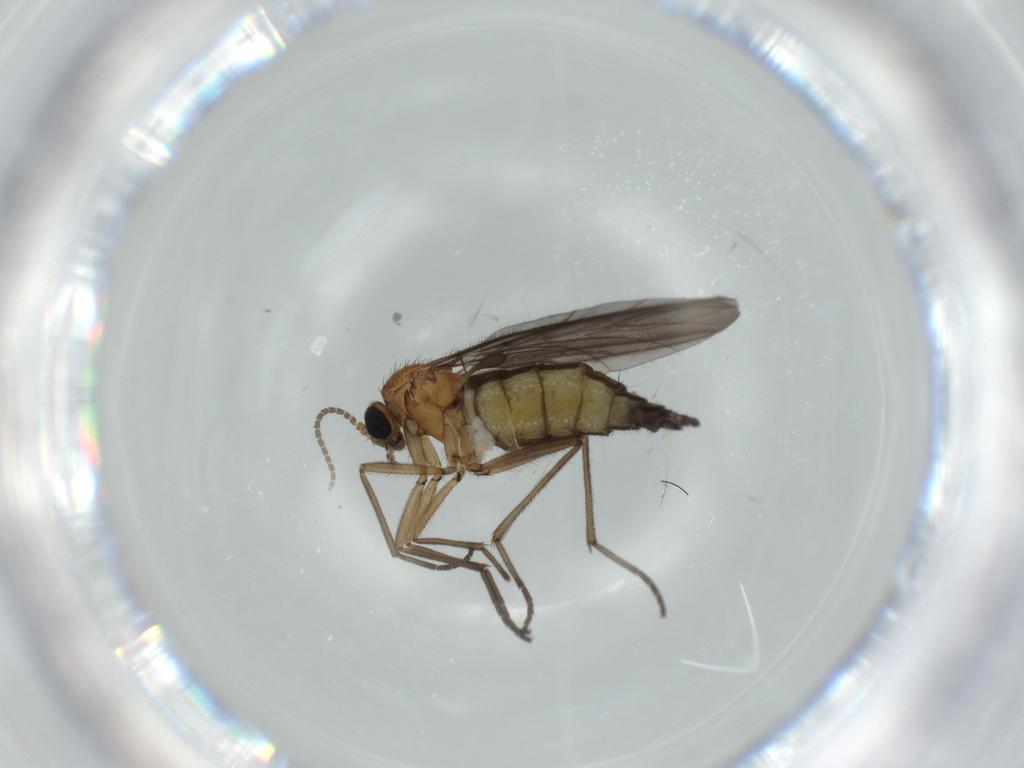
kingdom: Animalia
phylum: Arthropoda
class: Insecta
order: Diptera
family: Sciaridae
